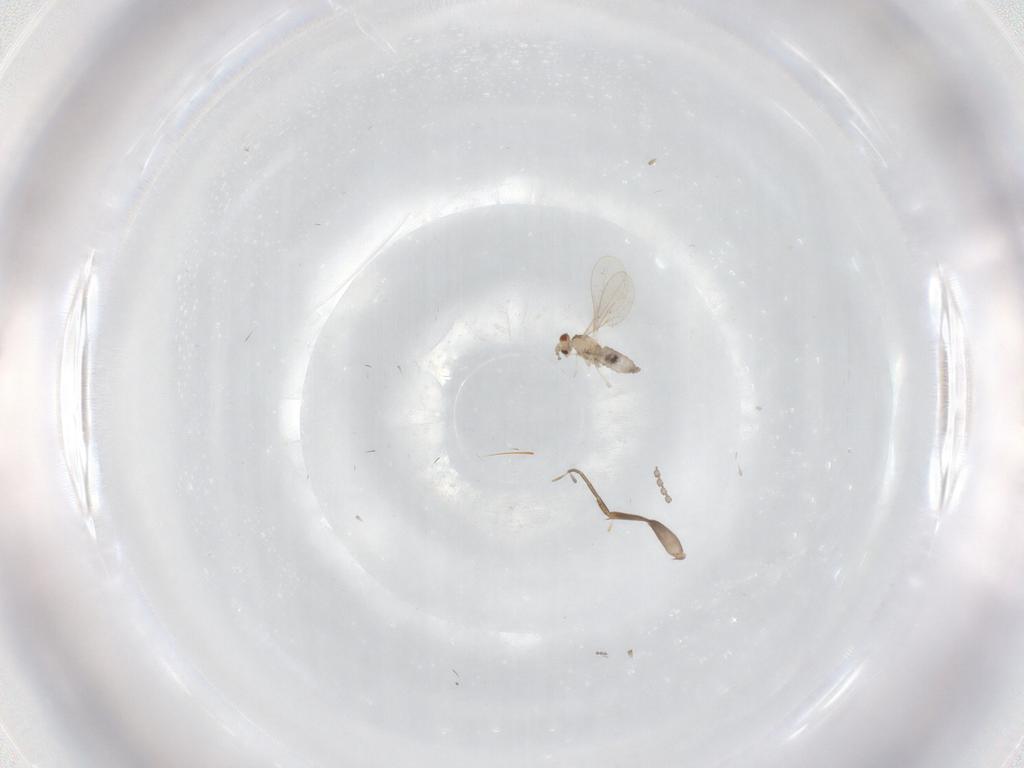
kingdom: Animalia
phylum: Arthropoda
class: Insecta
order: Diptera
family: Cecidomyiidae
